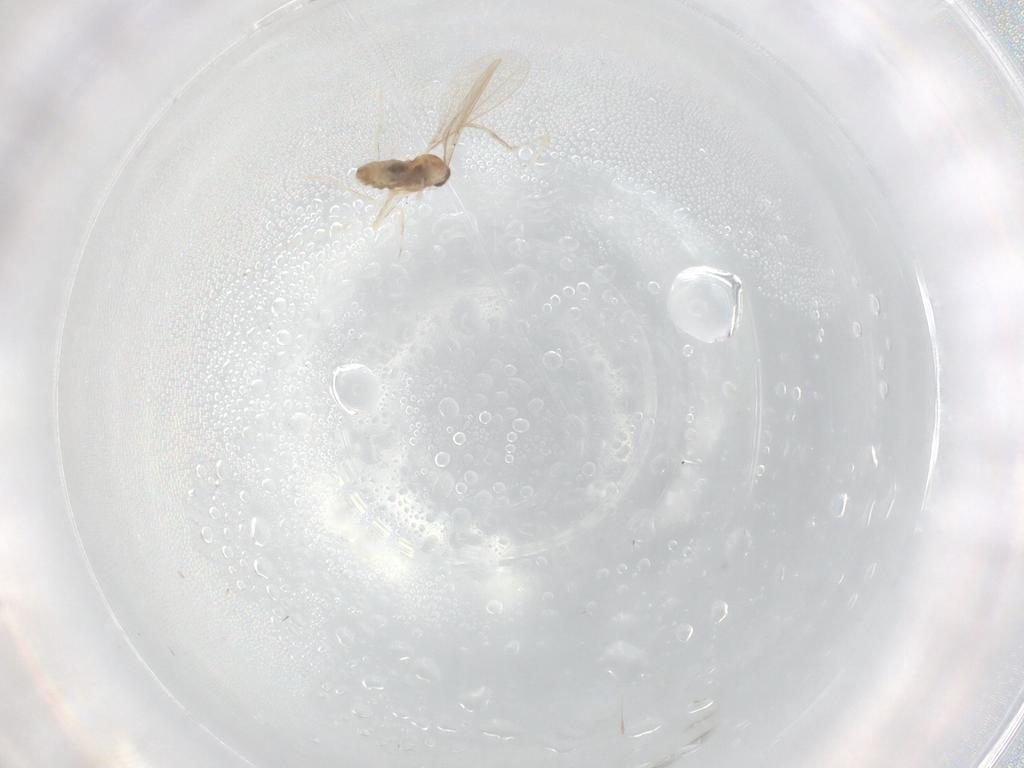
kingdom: Animalia
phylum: Arthropoda
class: Insecta
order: Diptera
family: Cecidomyiidae
